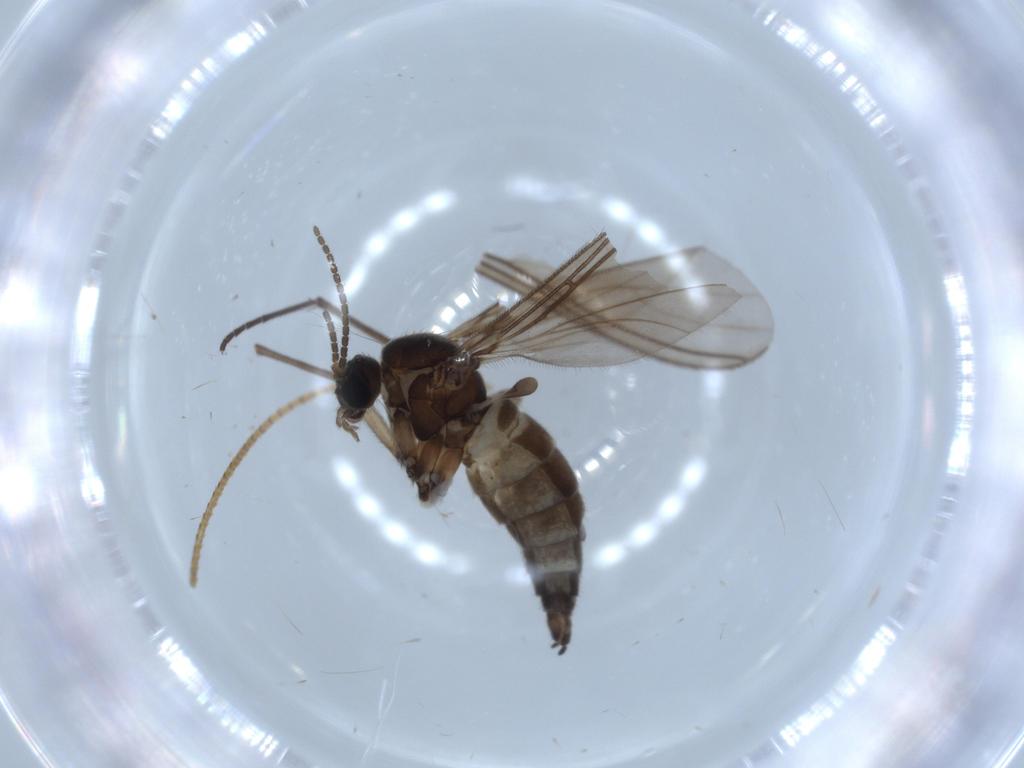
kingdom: Animalia
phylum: Arthropoda
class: Insecta
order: Diptera
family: Sciaridae
